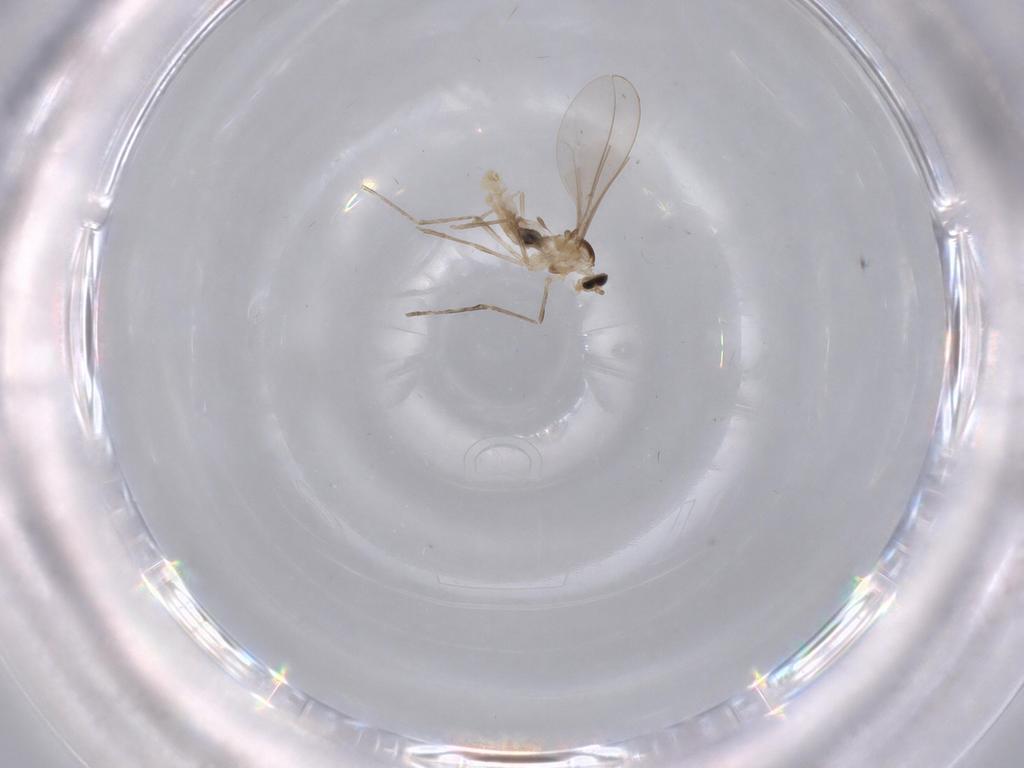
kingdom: Animalia
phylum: Arthropoda
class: Insecta
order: Diptera
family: Cecidomyiidae
